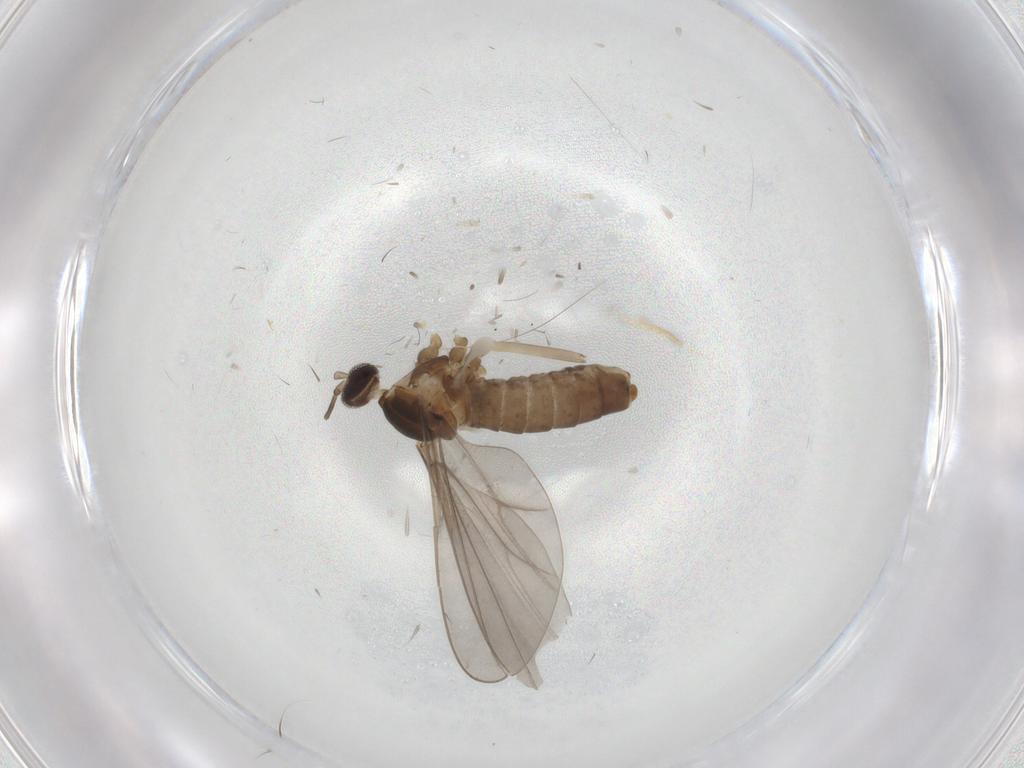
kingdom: Animalia
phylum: Arthropoda
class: Insecta
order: Diptera
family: Cecidomyiidae
